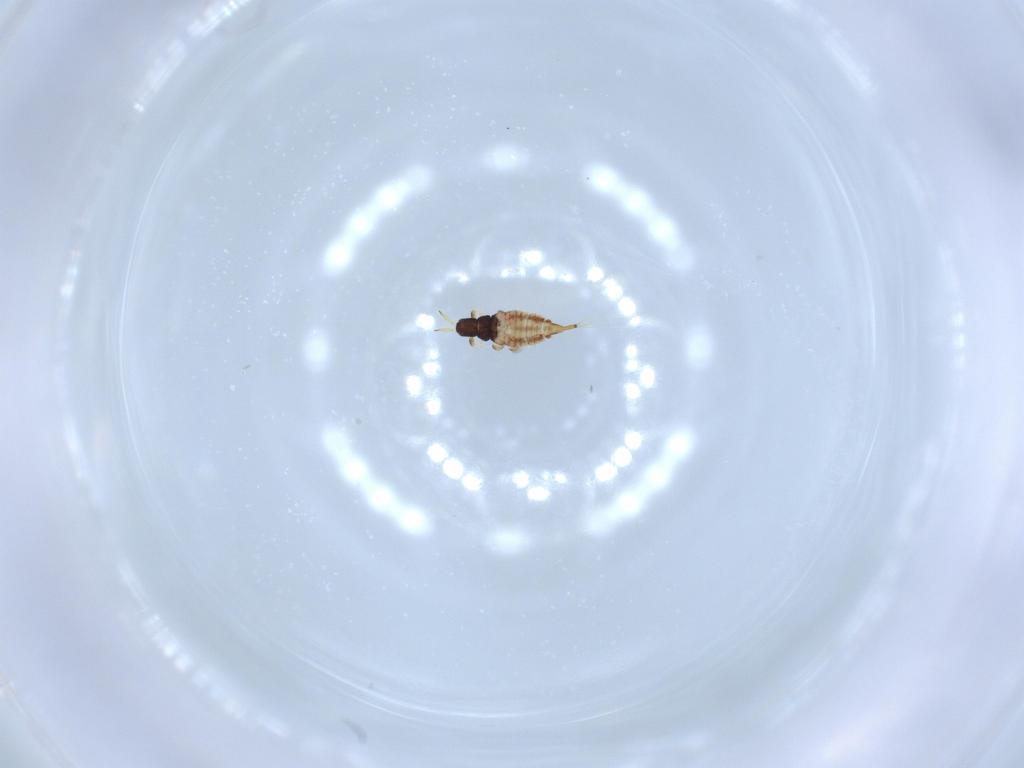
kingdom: Animalia
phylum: Arthropoda
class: Insecta
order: Thysanoptera
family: Phlaeothripidae
